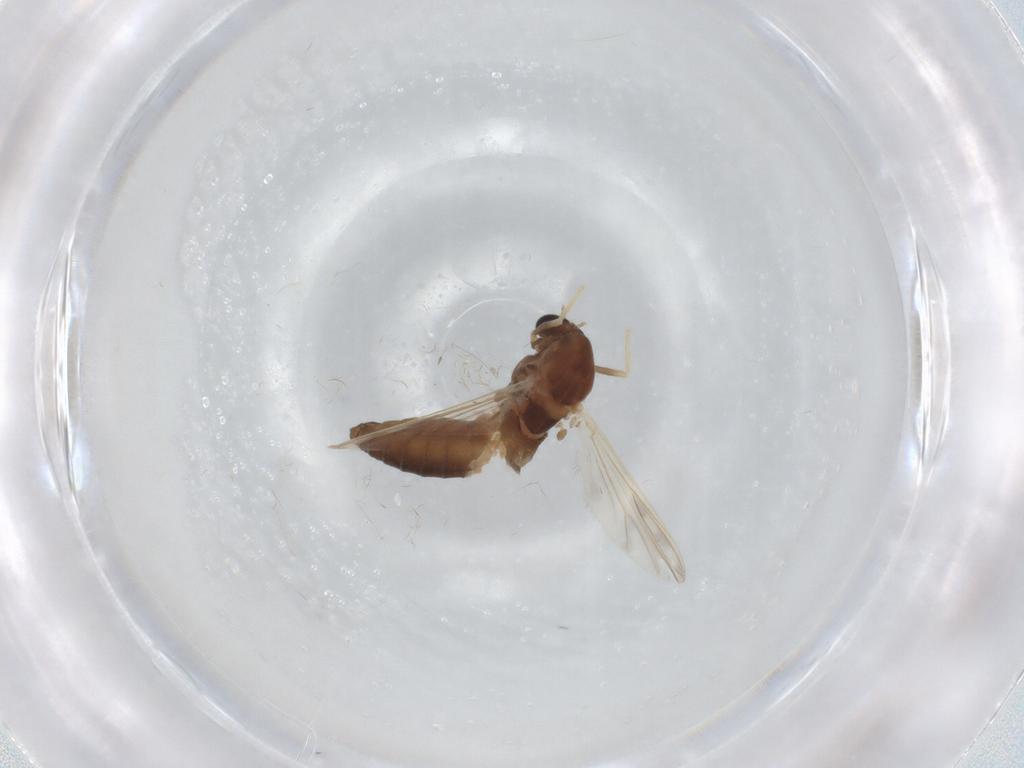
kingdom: Animalia
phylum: Arthropoda
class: Insecta
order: Diptera
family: Chironomidae
